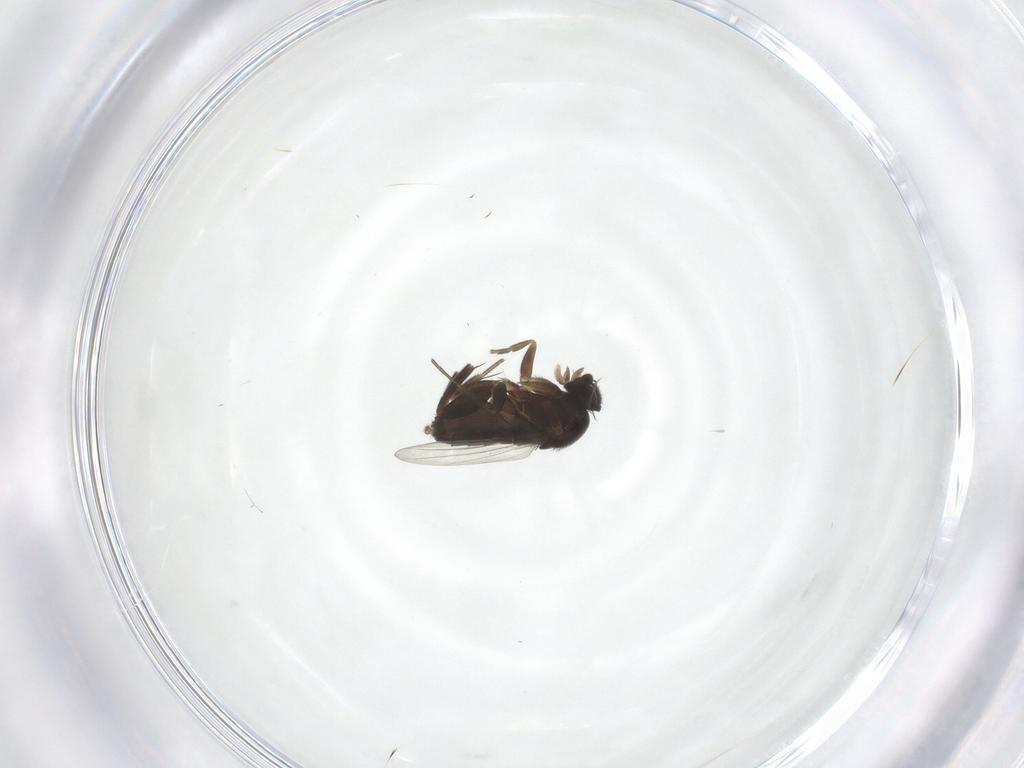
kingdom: Animalia
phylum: Arthropoda
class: Insecta
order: Diptera
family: Phoridae
